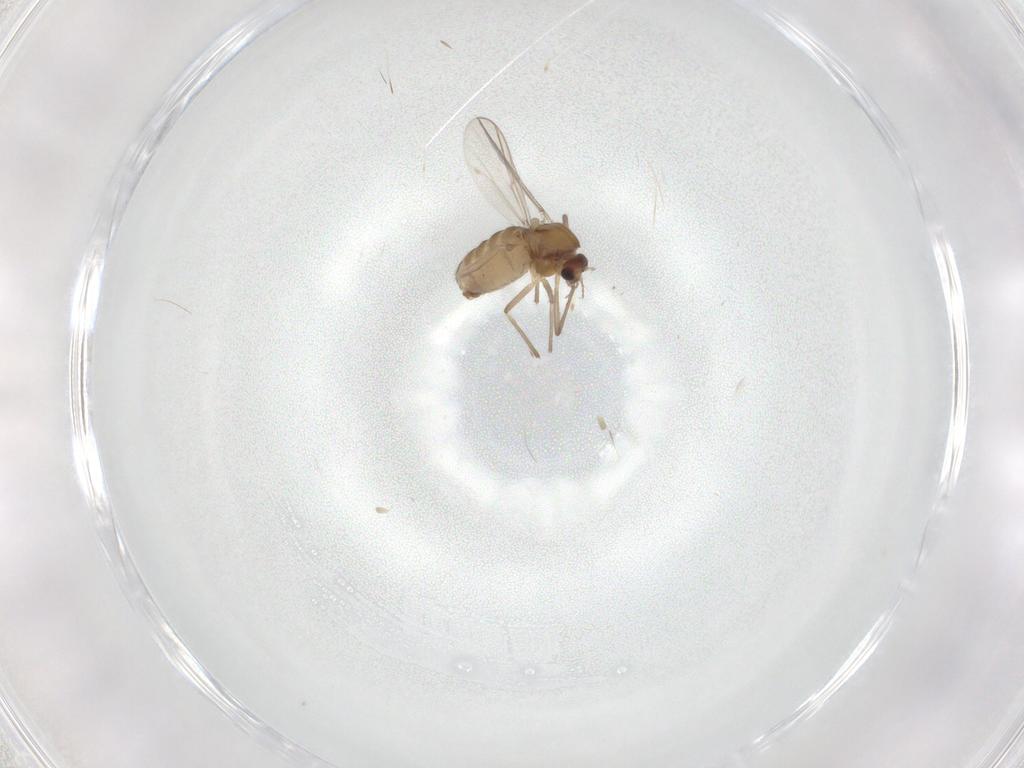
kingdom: Animalia
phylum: Arthropoda
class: Insecta
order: Diptera
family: Chironomidae
